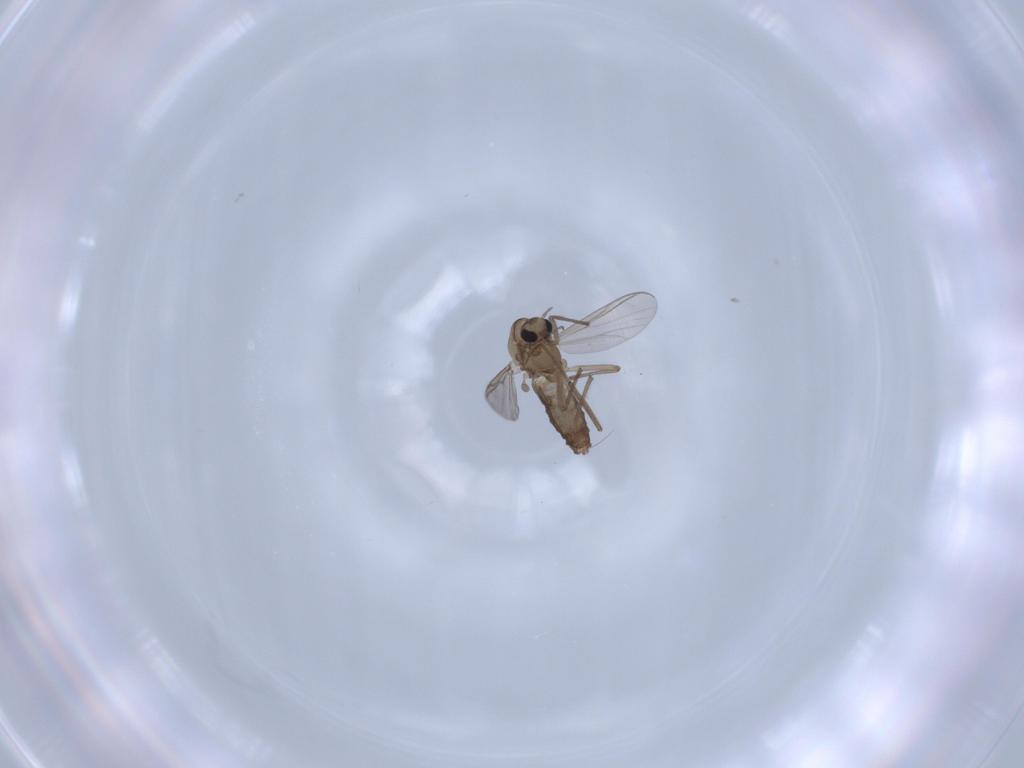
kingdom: Animalia
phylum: Arthropoda
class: Insecta
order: Diptera
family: Chironomidae
